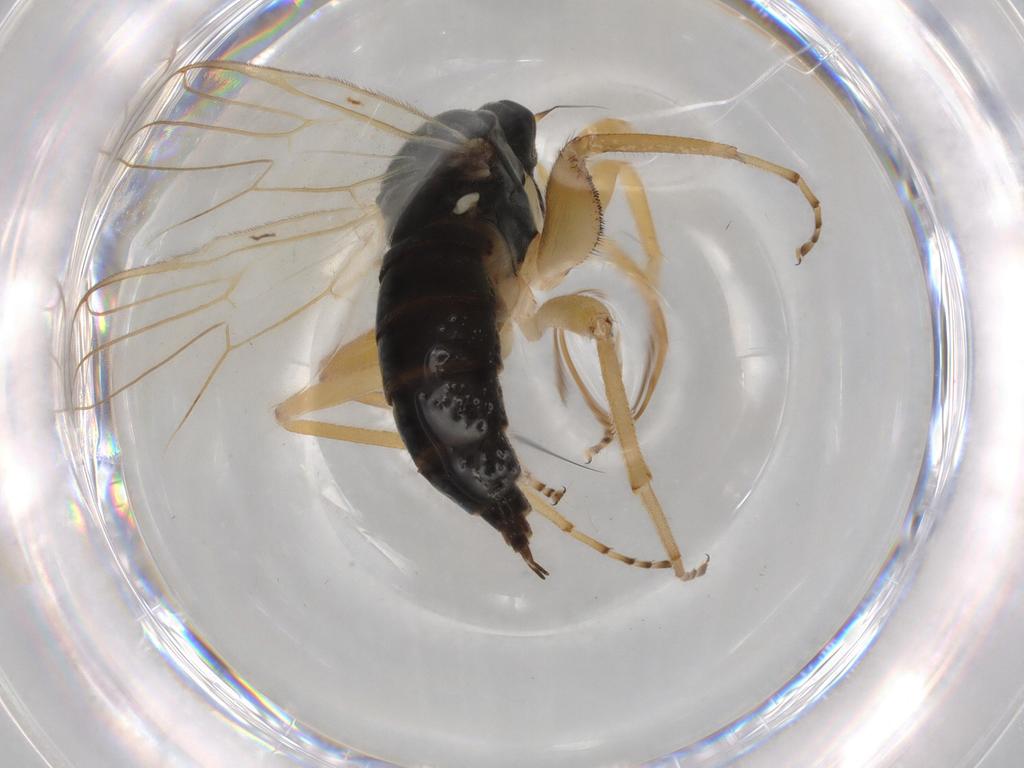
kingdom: Animalia
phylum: Arthropoda
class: Insecta
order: Diptera
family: Hybotidae
